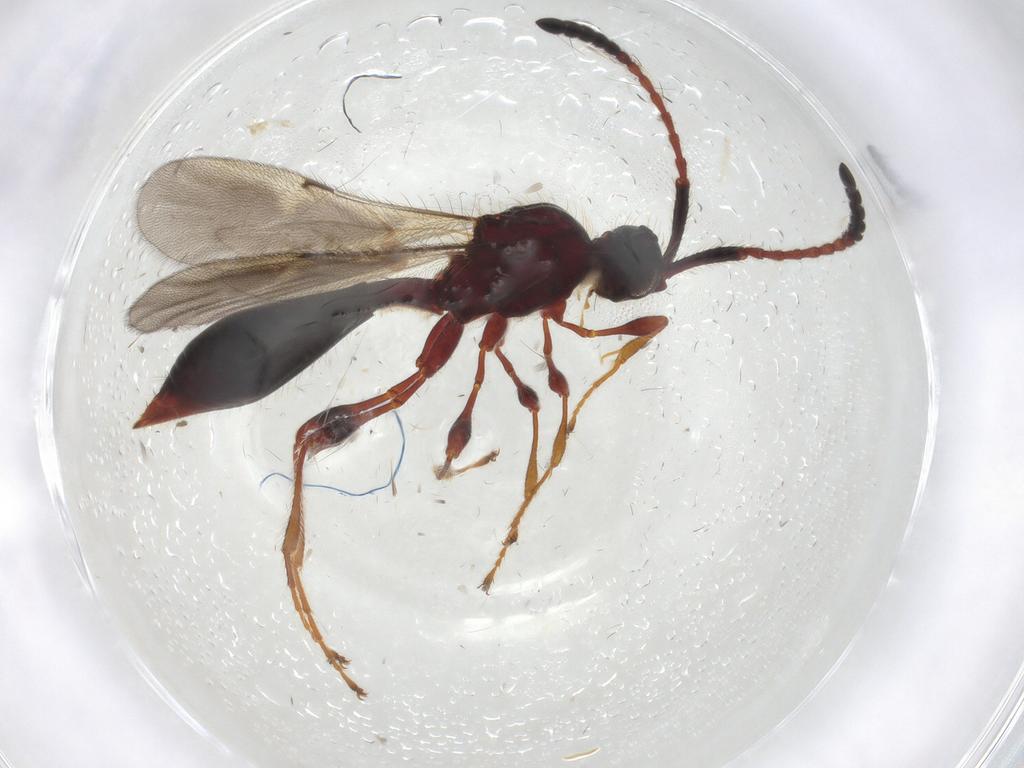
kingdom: Animalia
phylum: Arthropoda
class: Insecta
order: Hymenoptera
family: Diapriidae
